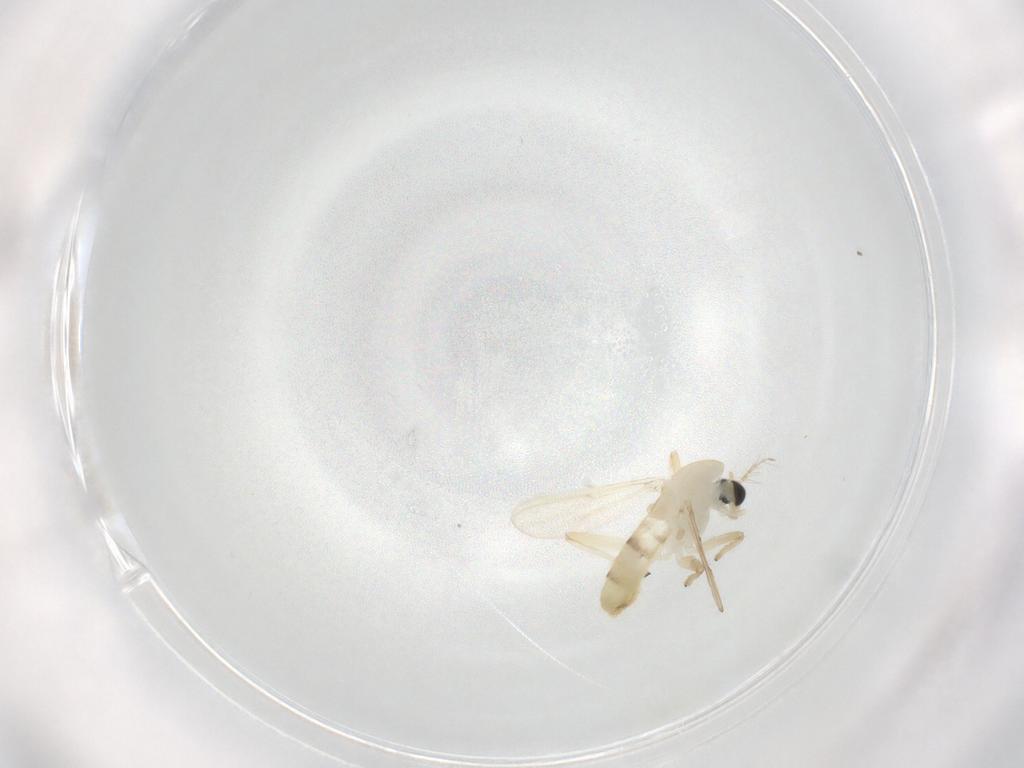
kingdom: Animalia
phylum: Arthropoda
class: Insecta
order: Diptera
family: Chironomidae
